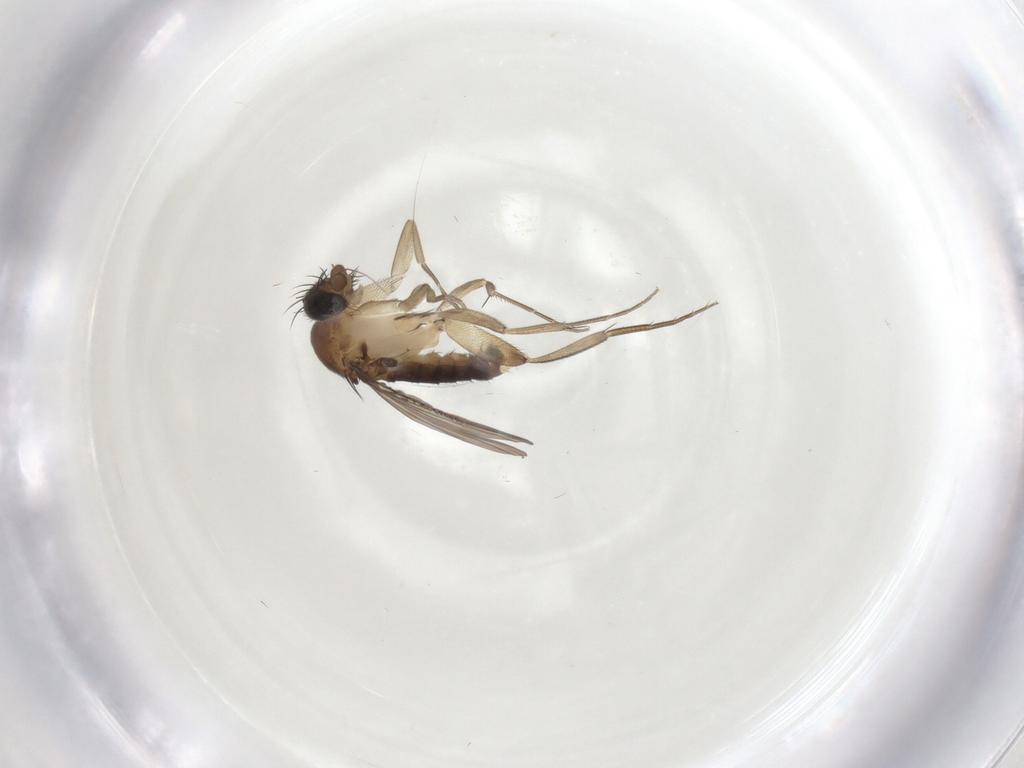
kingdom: Animalia
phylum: Arthropoda
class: Insecta
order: Diptera
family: Phoridae
